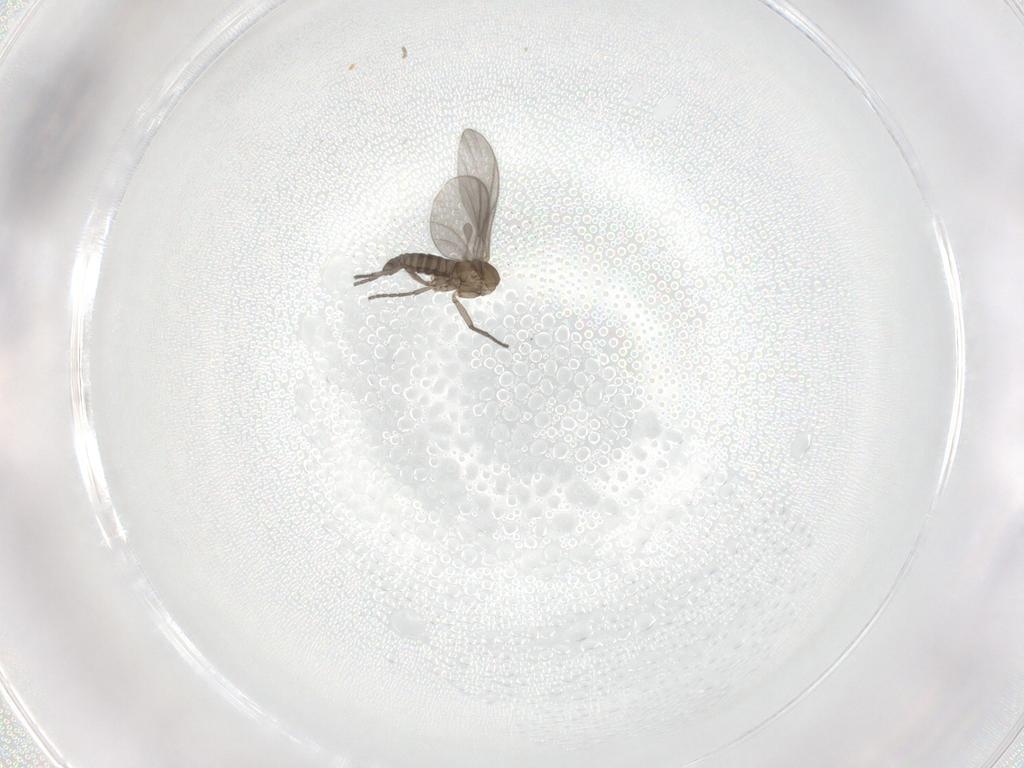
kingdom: Animalia
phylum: Arthropoda
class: Insecta
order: Diptera
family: Sciaridae
